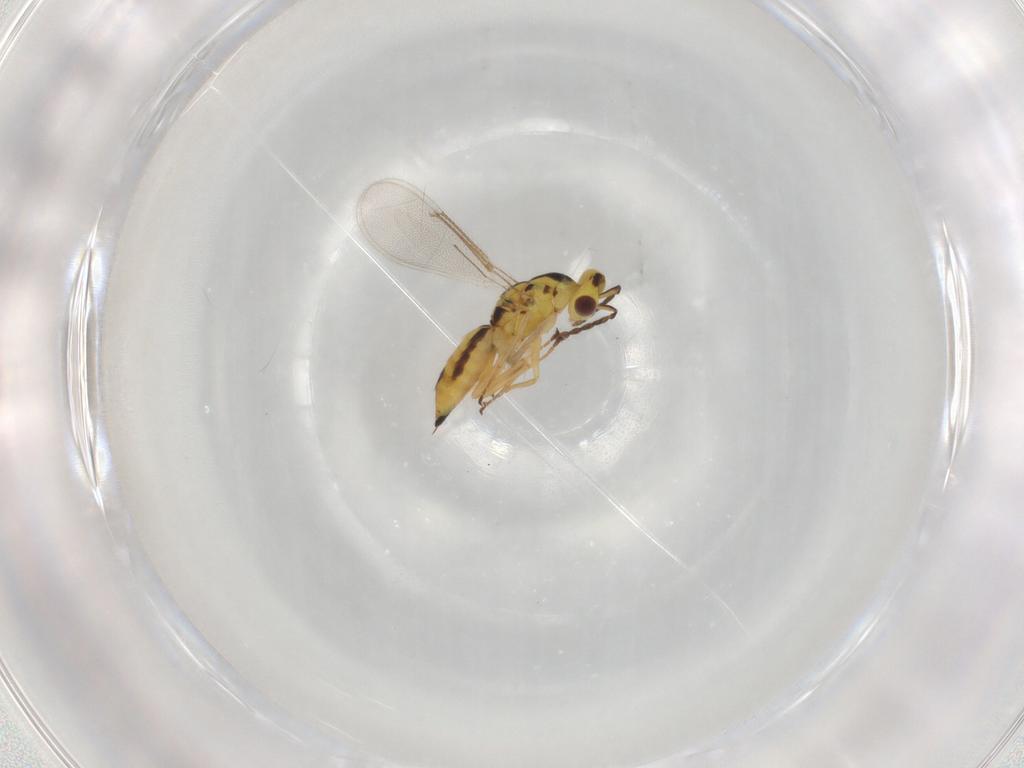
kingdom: Animalia
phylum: Arthropoda
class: Insecta
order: Hymenoptera
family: Eulophidae
